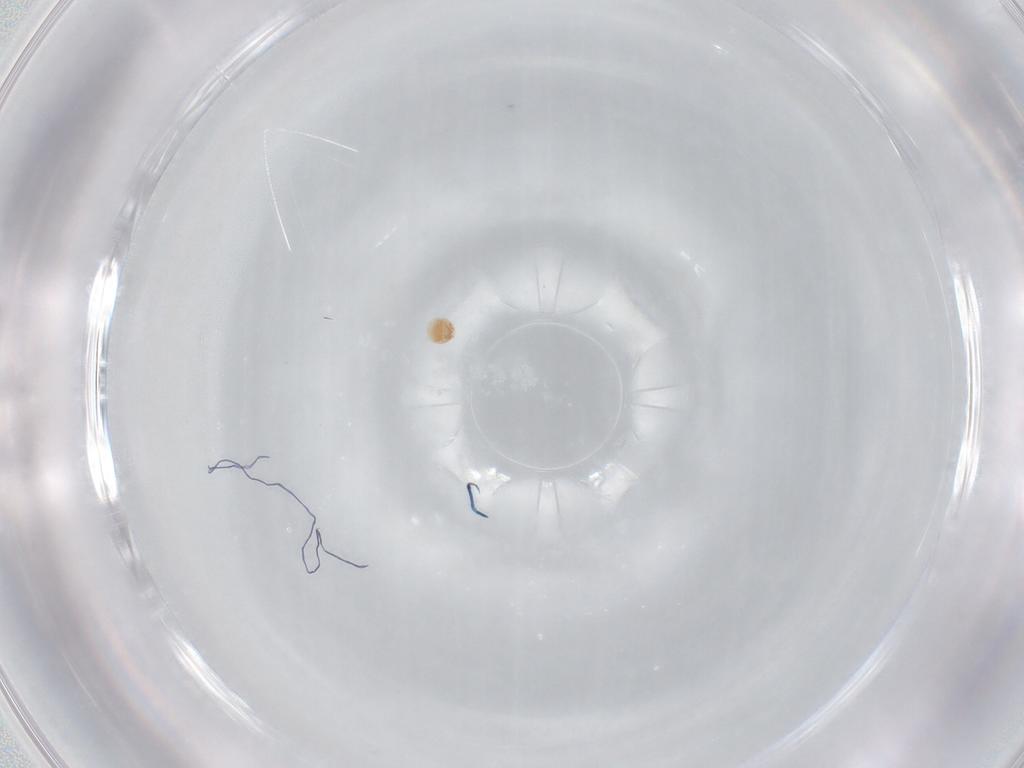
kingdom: Animalia
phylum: Arthropoda
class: Arachnida
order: Trombidiformes
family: Scutacaridae
